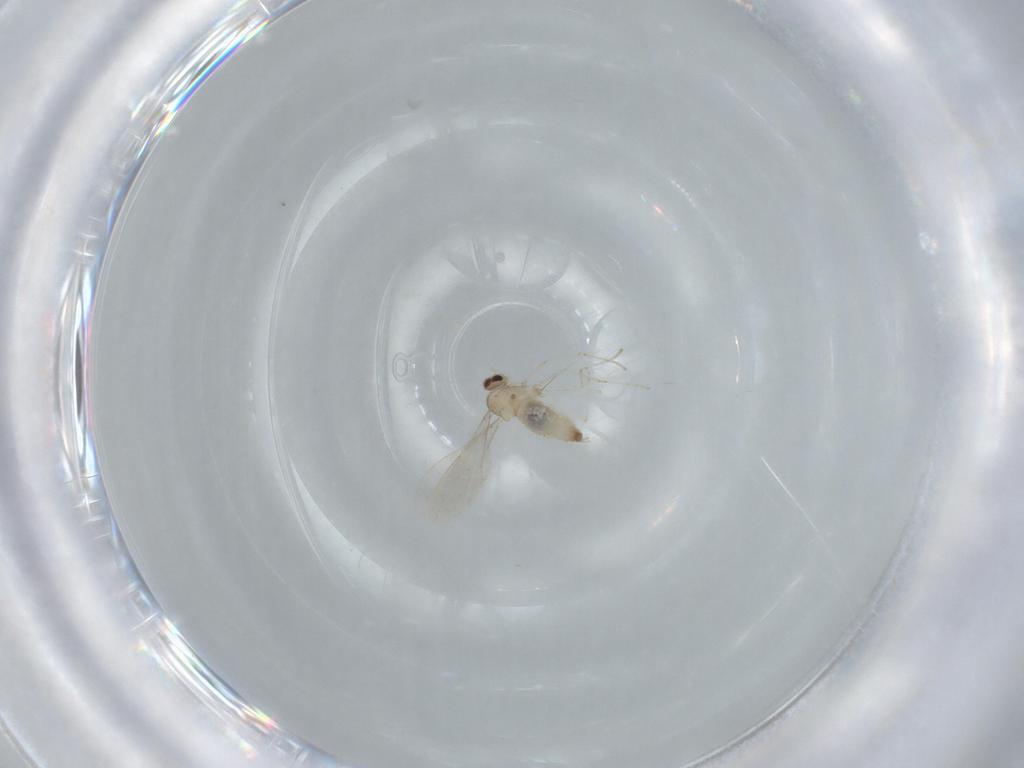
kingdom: Animalia
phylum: Arthropoda
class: Insecta
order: Diptera
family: Cecidomyiidae
